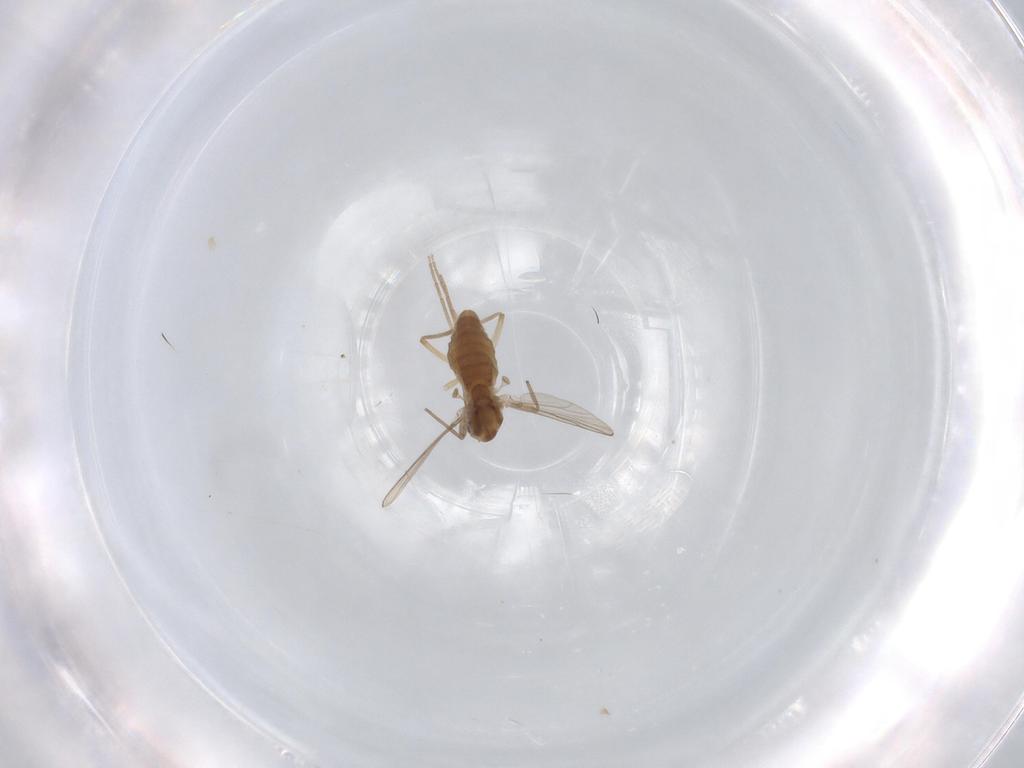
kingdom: Animalia
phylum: Arthropoda
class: Insecta
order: Diptera
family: Chironomidae
